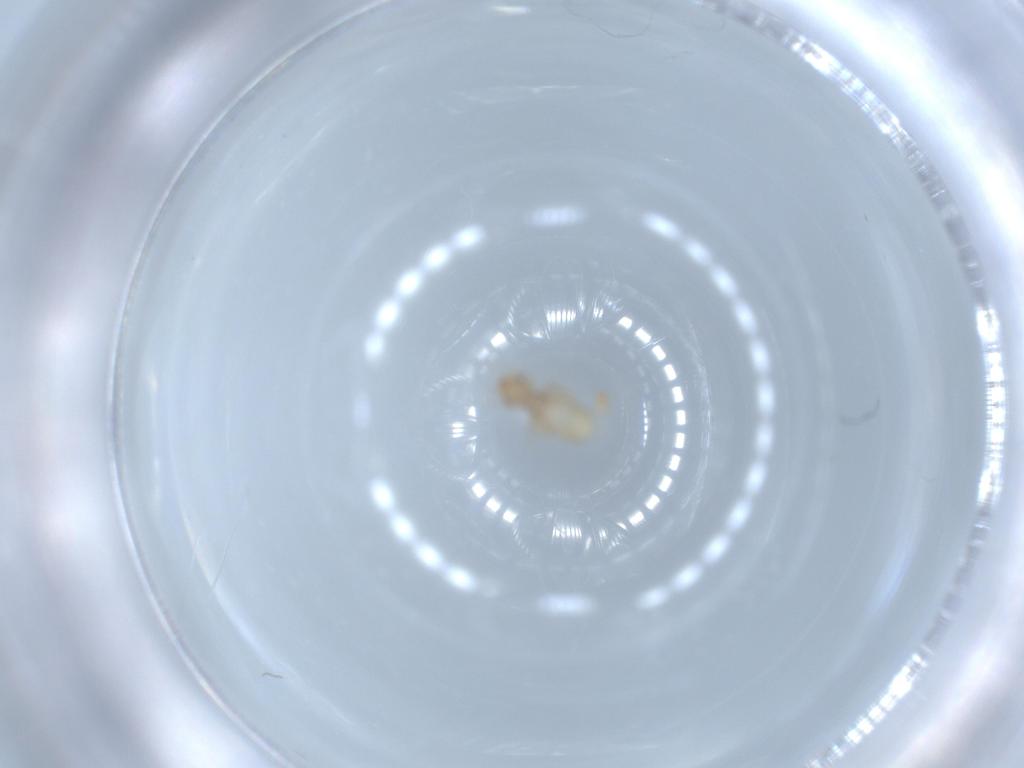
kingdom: Animalia
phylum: Arthropoda
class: Insecta
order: Psocodea
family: Liposcelididae
